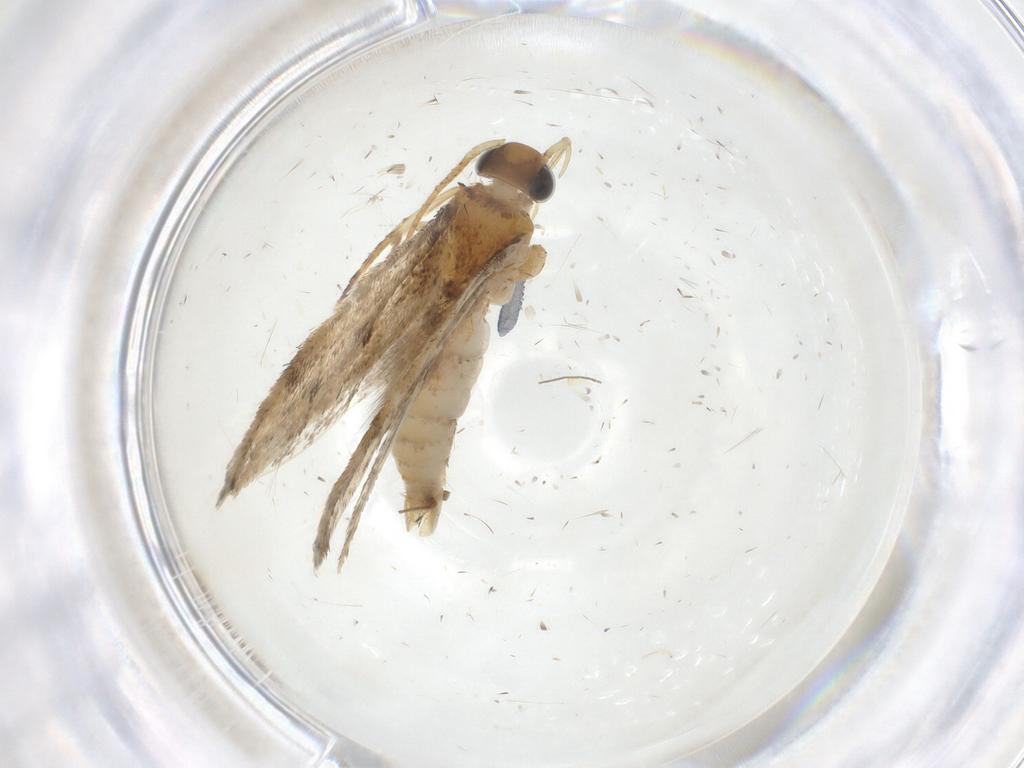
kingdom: Animalia
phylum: Arthropoda
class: Insecta
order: Lepidoptera
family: Oecophoridae
